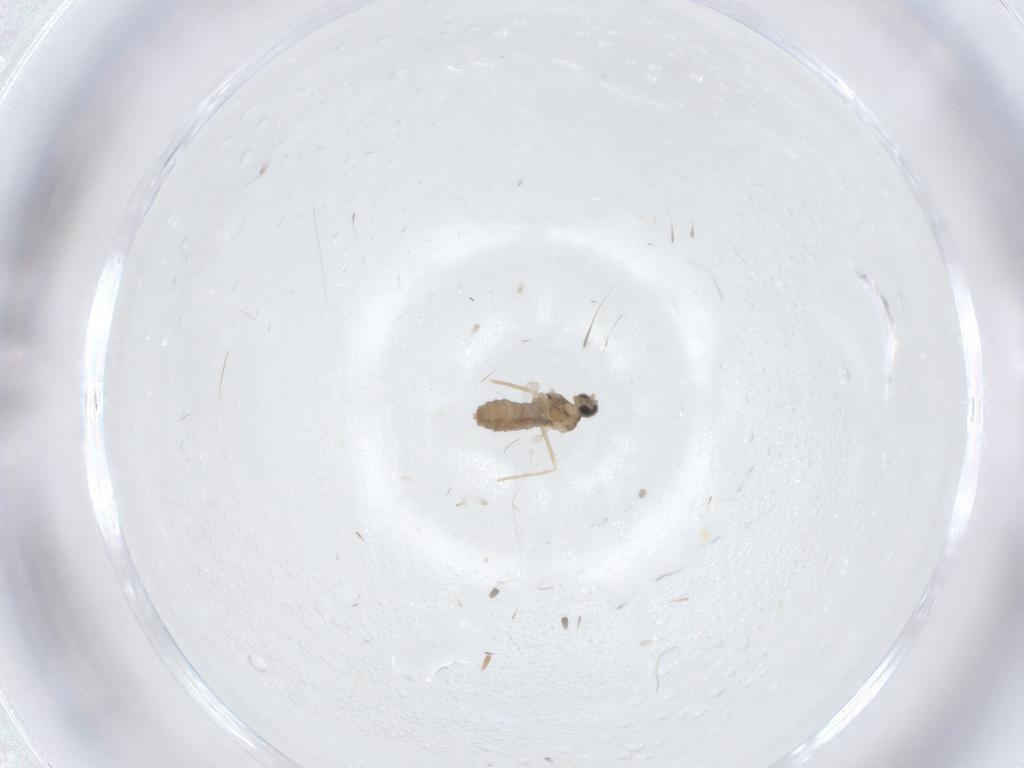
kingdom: Animalia
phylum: Arthropoda
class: Insecta
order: Diptera
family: Cecidomyiidae
